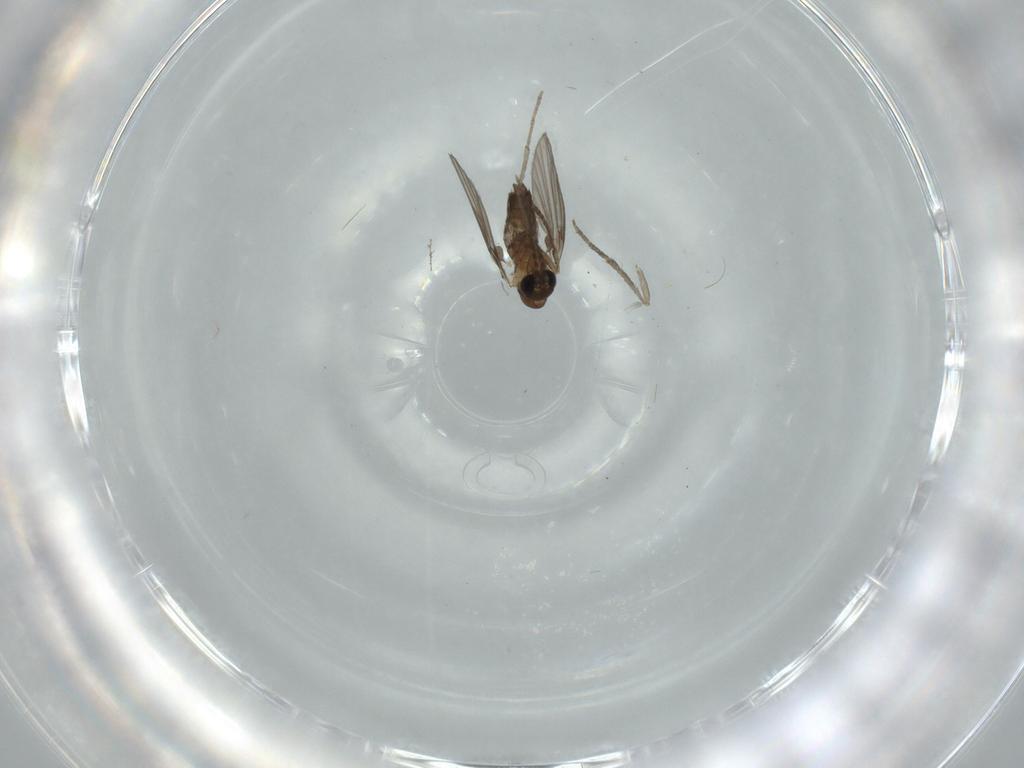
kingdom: Animalia
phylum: Arthropoda
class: Insecta
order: Diptera
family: Psychodidae
